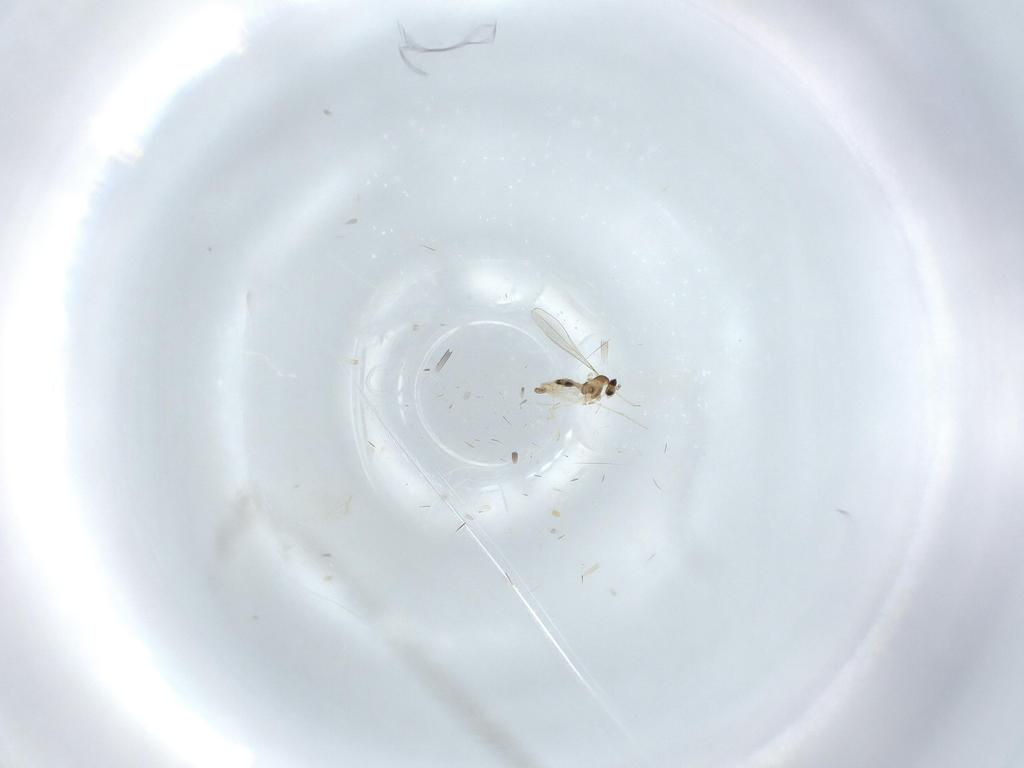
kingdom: Animalia
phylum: Arthropoda
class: Insecta
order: Diptera
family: Cecidomyiidae
